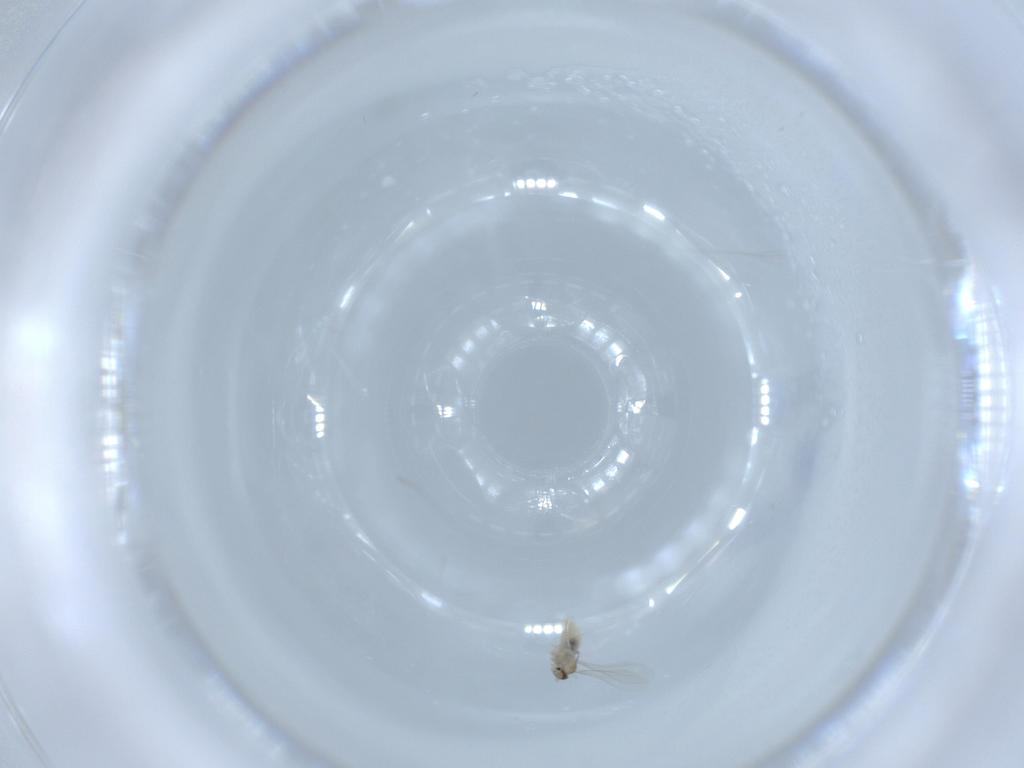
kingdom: Animalia
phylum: Arthropoda
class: Insecta
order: Diptera
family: Cecidomyiidae
